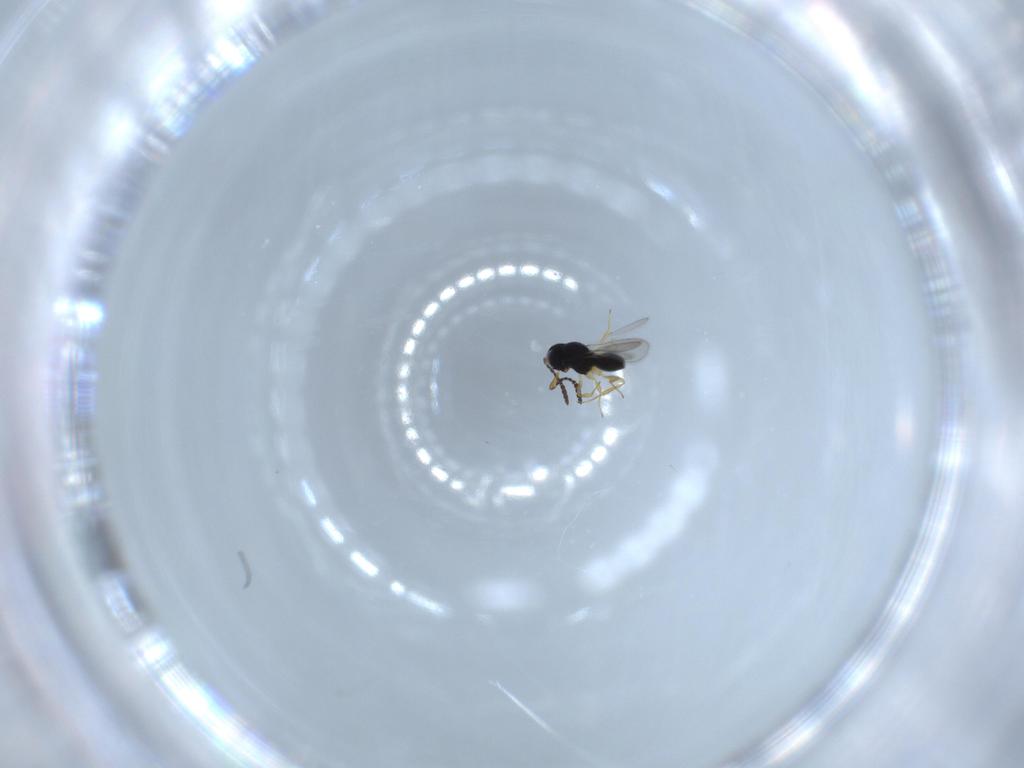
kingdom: Animalia
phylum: Arthropoda
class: Insecta
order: Hymenoptera
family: Scelionidae
